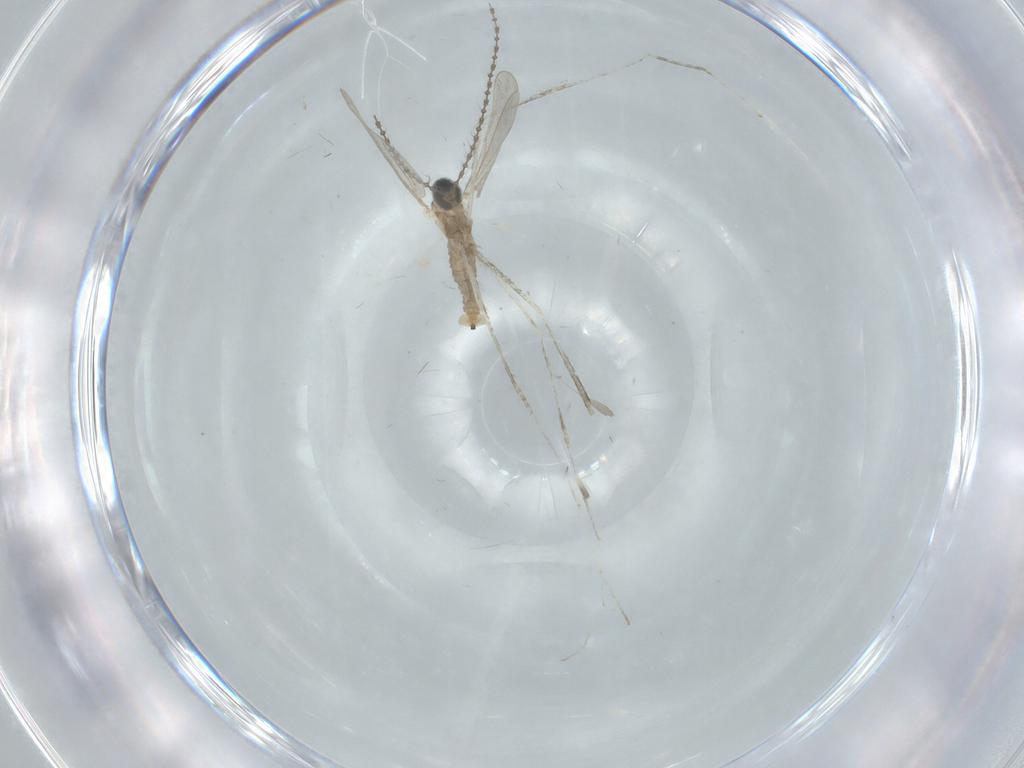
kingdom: Animalia
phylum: Arthropoda
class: Insecta
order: Diptera
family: Cecidomyiidae
